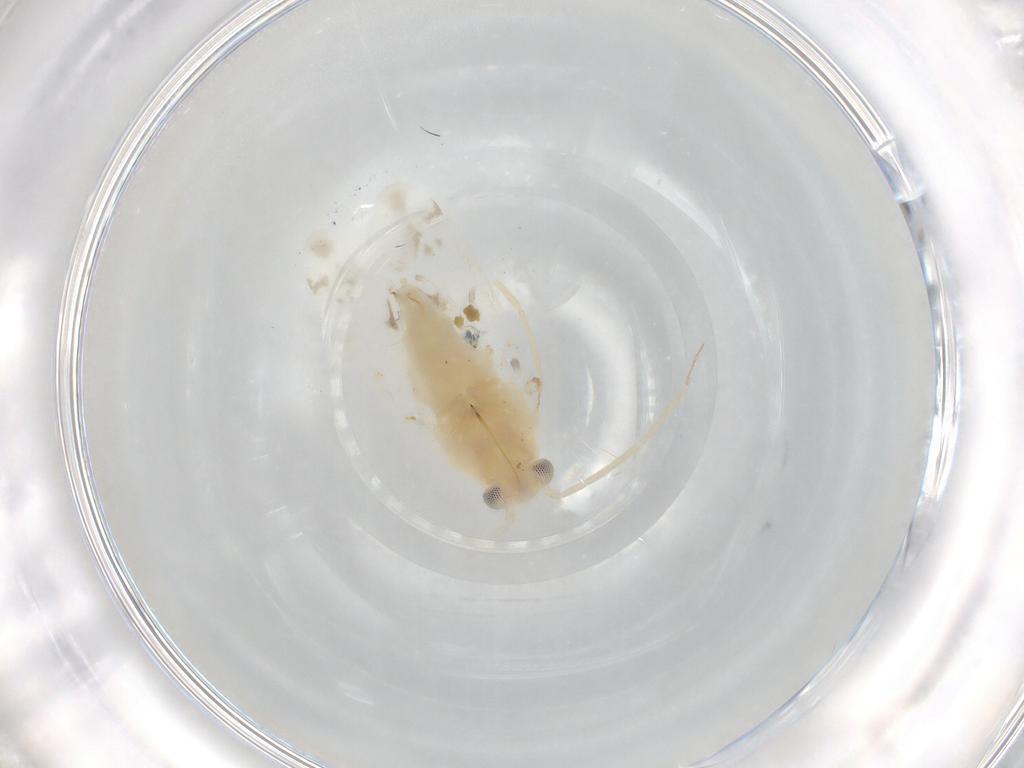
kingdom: Animalia
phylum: Arthropoda
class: Insecta
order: Hemiptera
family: Miridae
